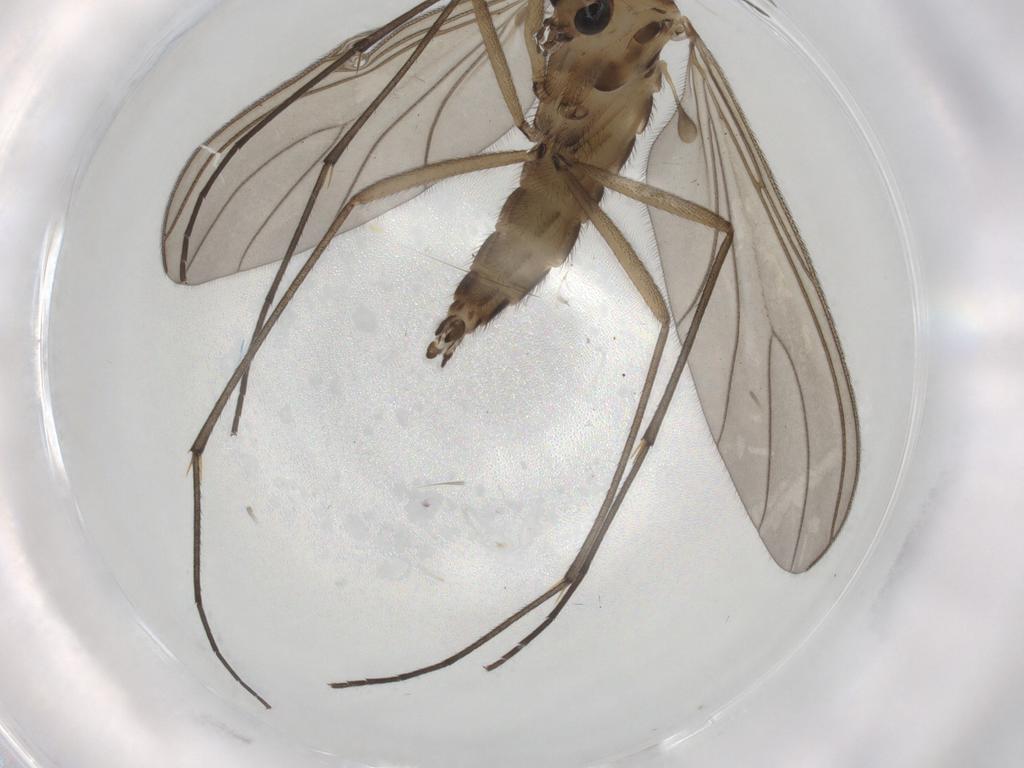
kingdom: Animalia
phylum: Arthropoda
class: Insecta
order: Diptera
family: Sciaridae
